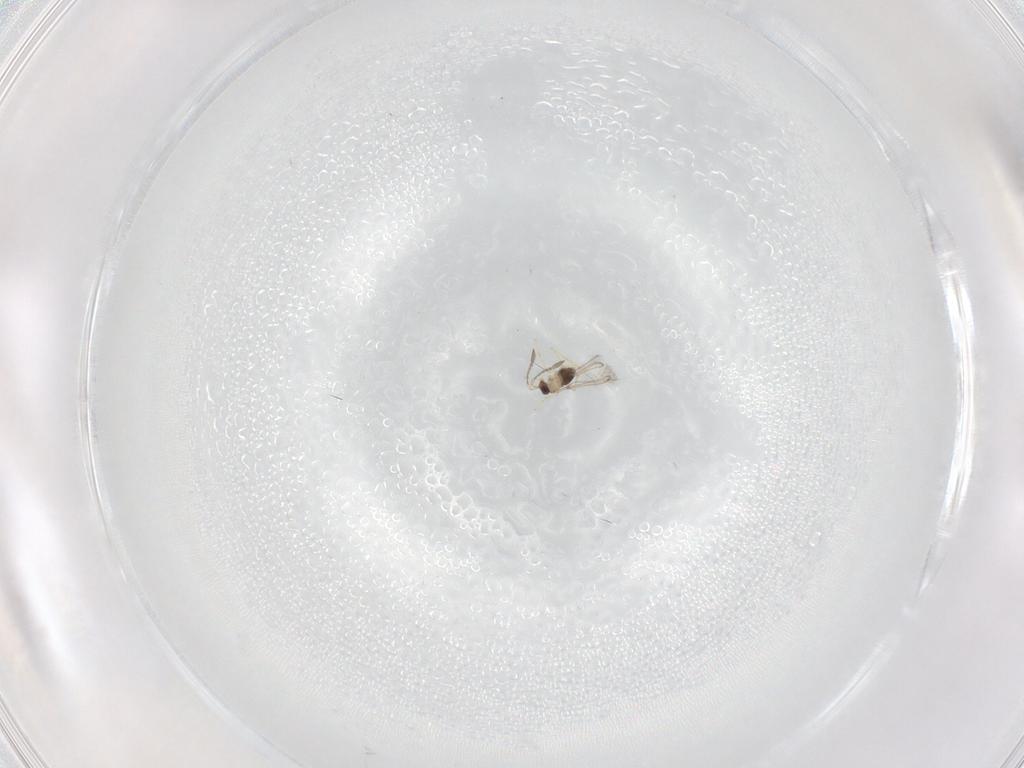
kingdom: Animalia
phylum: Arthropoda
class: Insecta
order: Hymenoptera
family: Mymaridae
